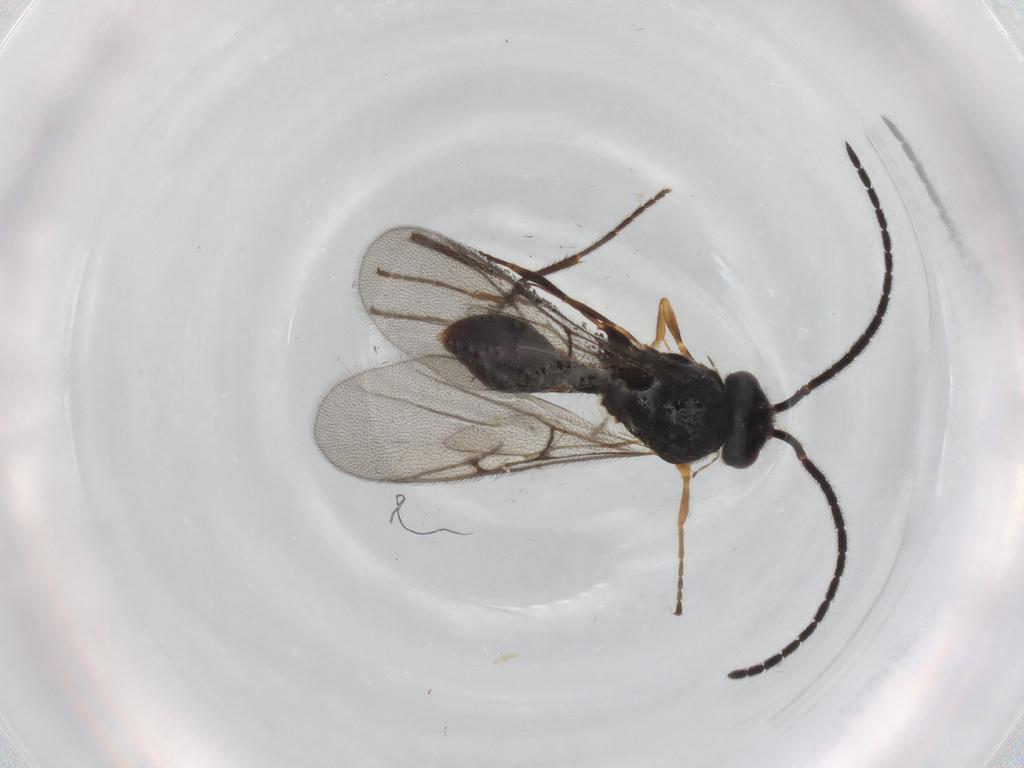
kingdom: Animalia
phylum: Arthropoda
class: Insecta
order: Hymenoptera
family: Diapriidae
